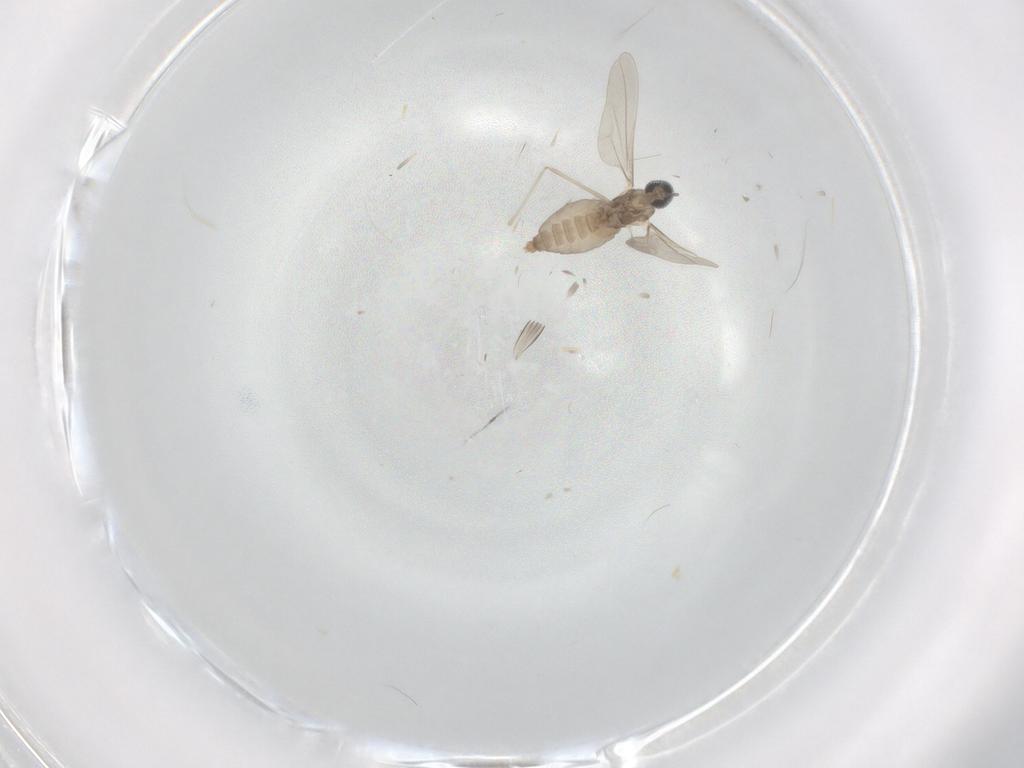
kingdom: Animalia
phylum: Arthropoda
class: Insecta
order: Diptera
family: Cecidomyiidae
